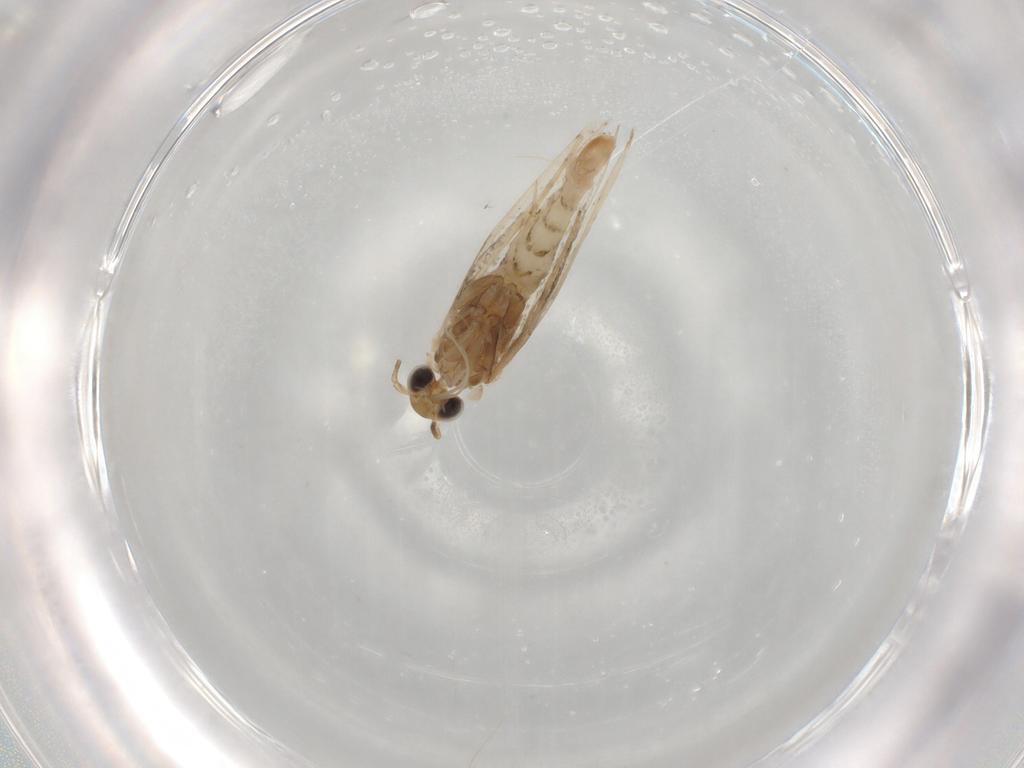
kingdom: Animalia
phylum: Arthropoda
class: Insecta
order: Lepidoptera
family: Gracillariidae
